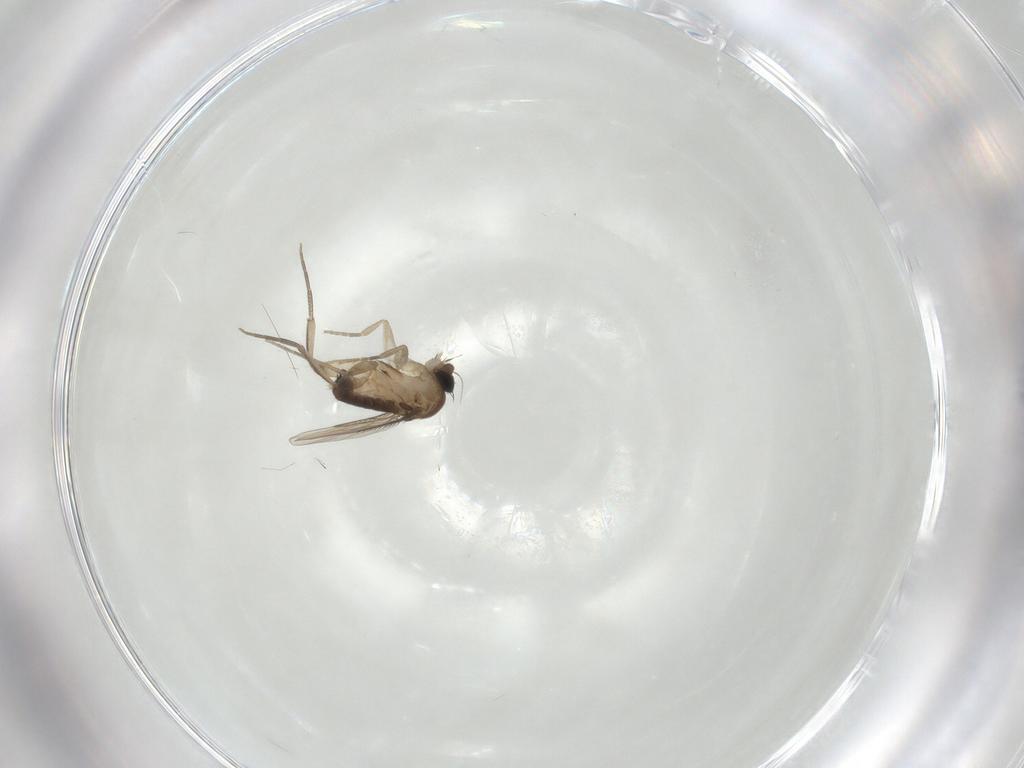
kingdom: Animalia
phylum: Arthropoda
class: Insecta
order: Diptera
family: Phoridae
